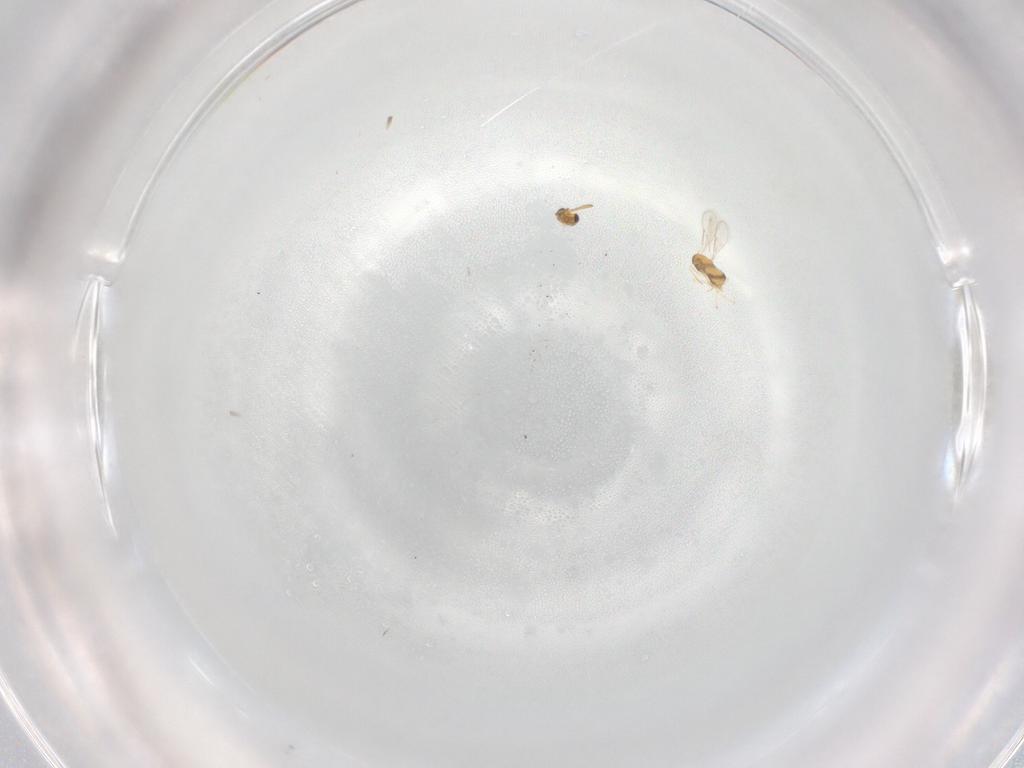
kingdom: Animalia
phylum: Arthropoda
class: Insecta
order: Hymenoptera
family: Aphelinidae
